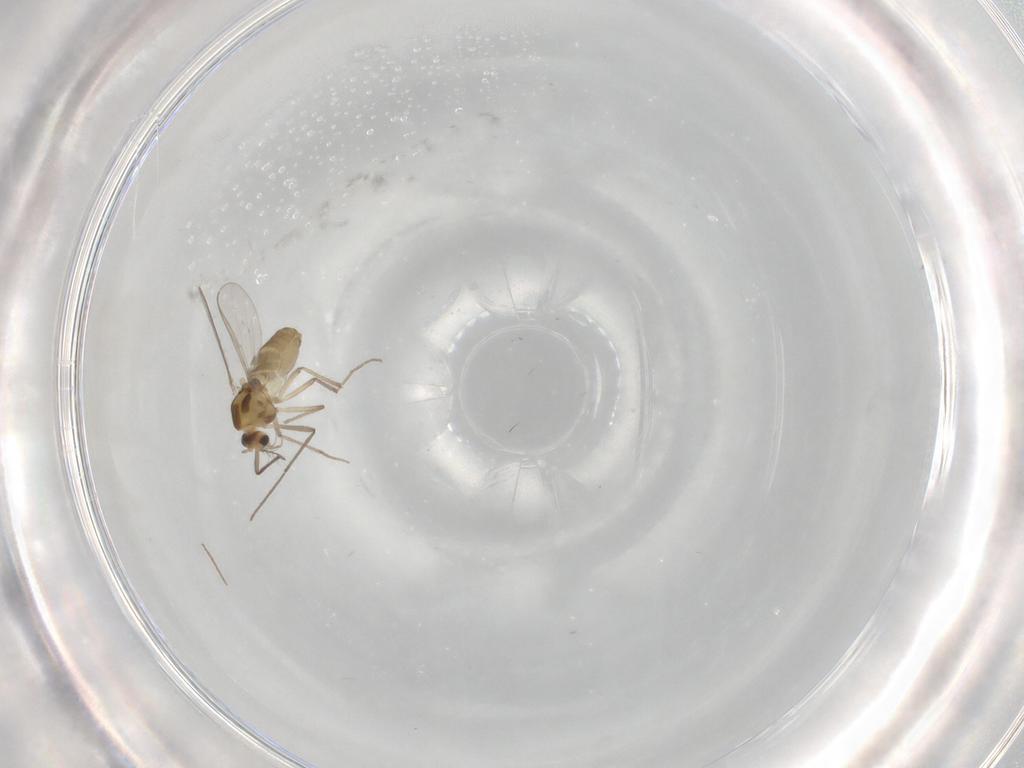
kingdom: Animalia
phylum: Arthropoda
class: Insecta
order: Diptera
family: Chironomidae
